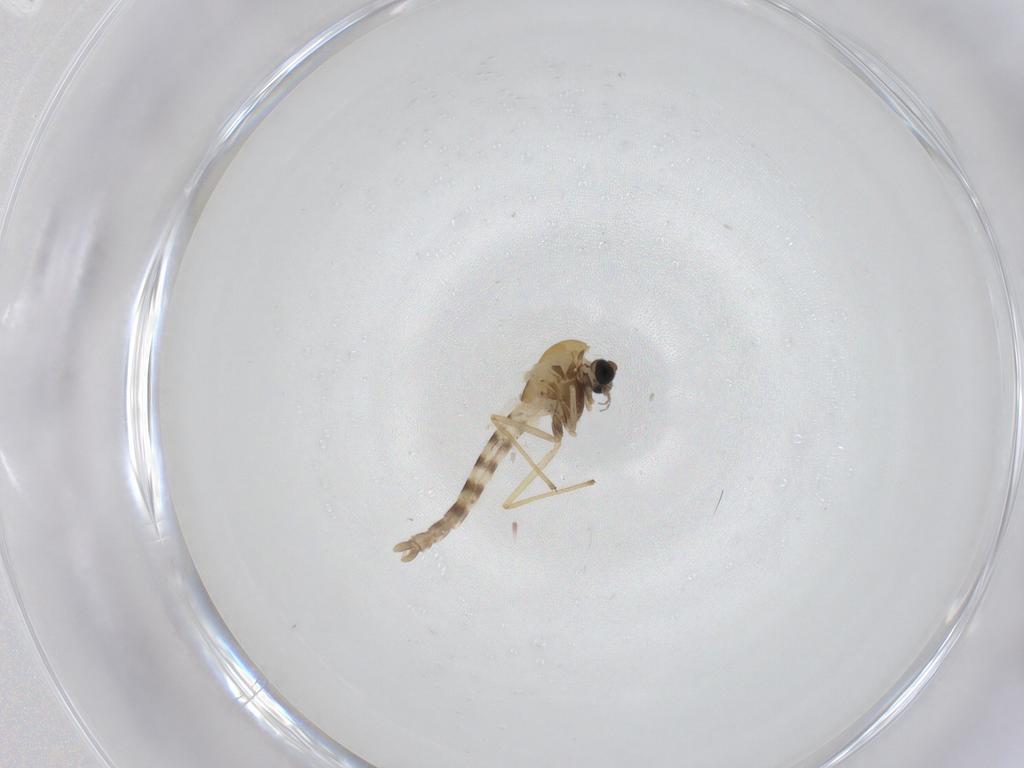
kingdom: Animalia
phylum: Arthropoda
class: Insecta
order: Diptera
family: Chironomidae
